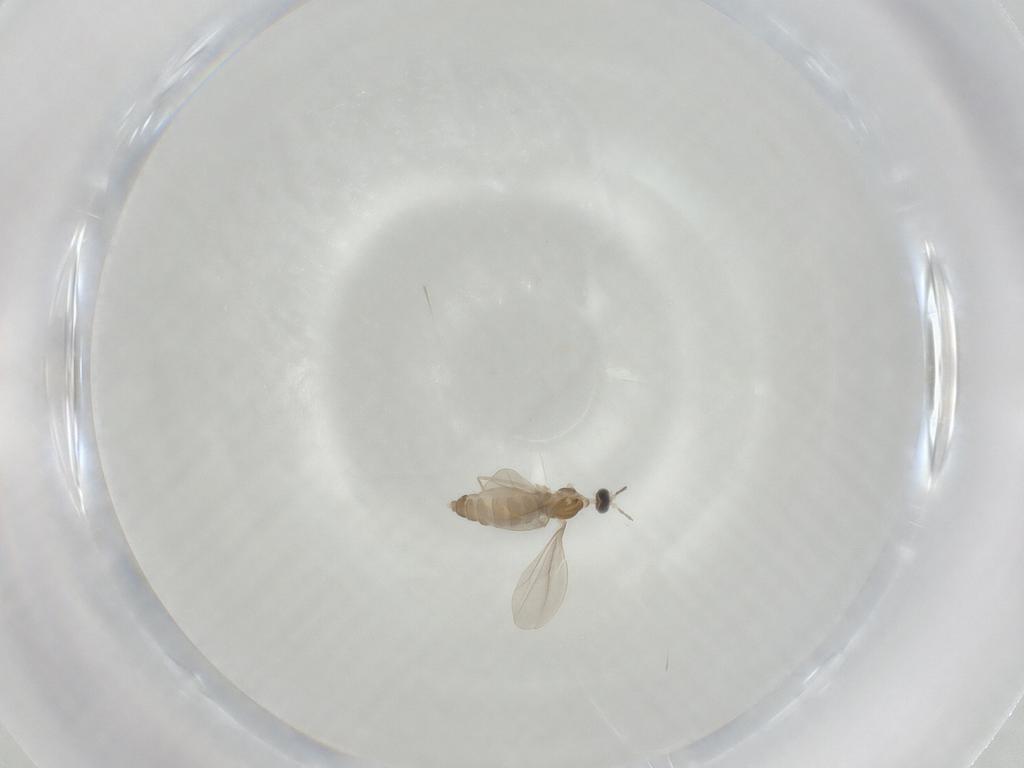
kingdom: Animalia
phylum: Arthropoda
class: Insecta
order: Diptera
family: Cecidomyiidae
